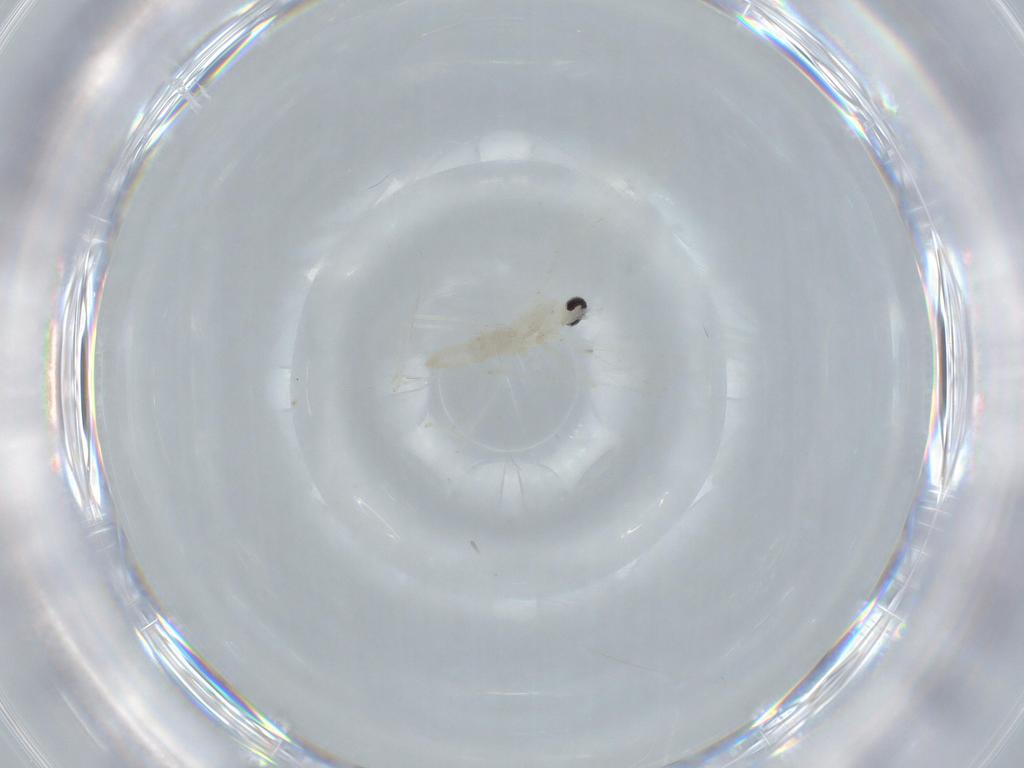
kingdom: Animalia
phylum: Arthropoda
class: Insecta
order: Diptera
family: Cecidomyiidae
